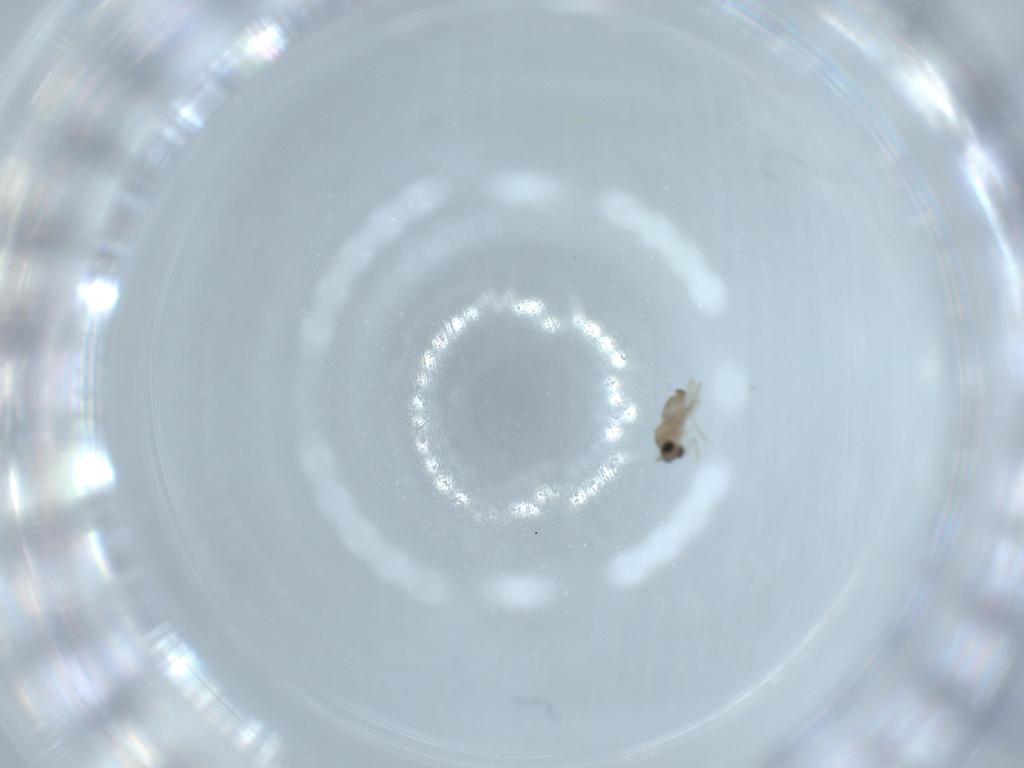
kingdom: Animalia
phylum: Arthropoda
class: Insecta
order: Diptera
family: Cecidomyiidae
